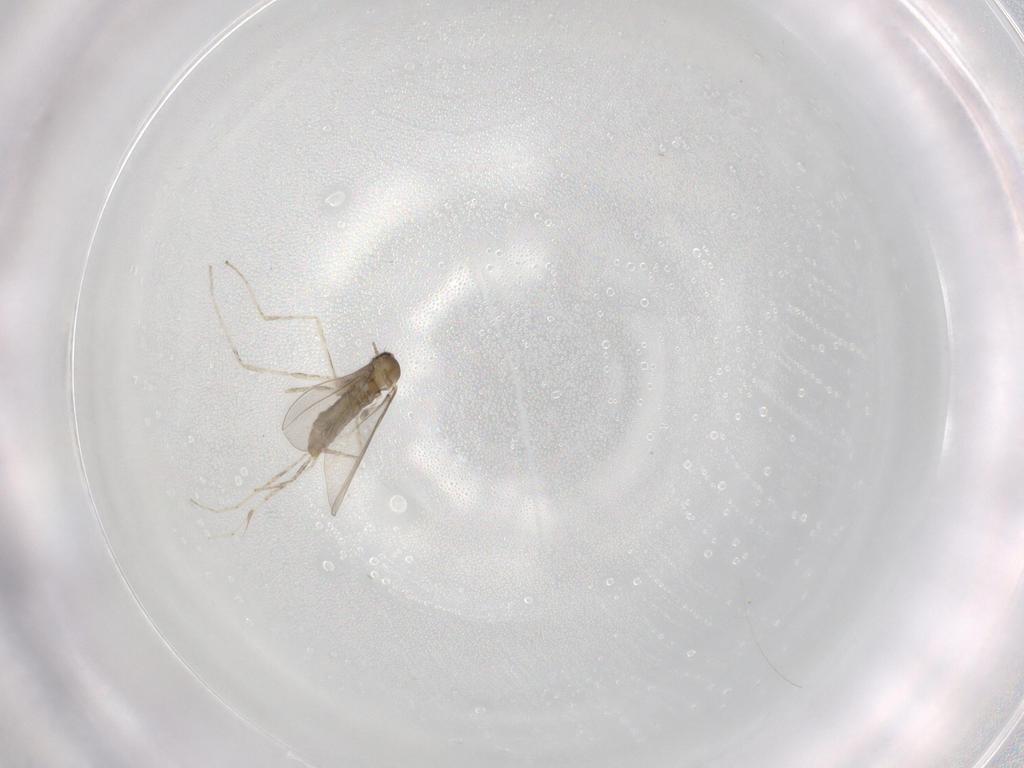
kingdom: Animalia
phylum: Arthropoda
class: Insecta
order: Diptera
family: Cecidomyiidae
